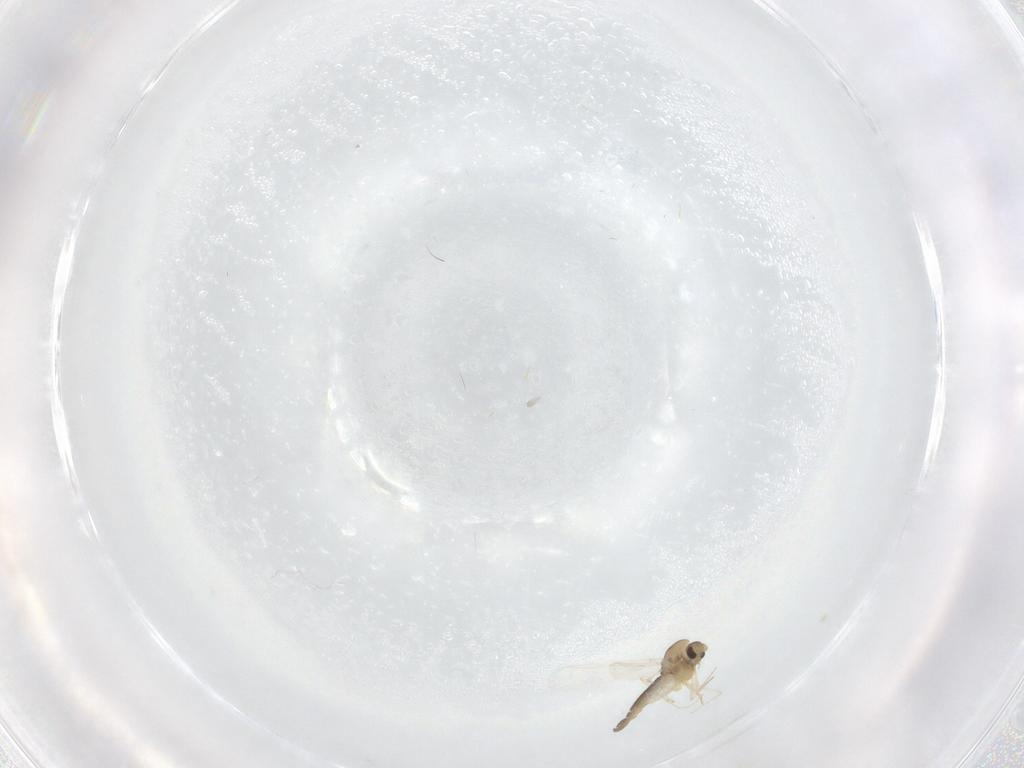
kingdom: Animalia
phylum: Arthropoda
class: Insecta
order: Diptera
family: Chironomidae
